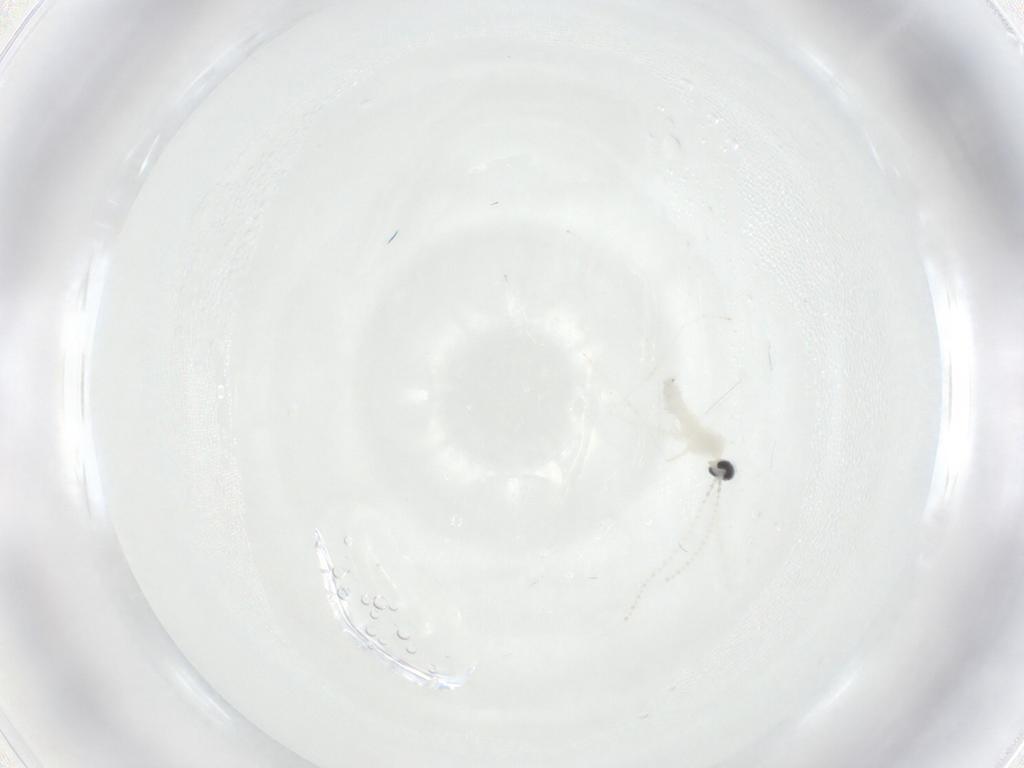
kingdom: Animalia
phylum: Arthropoda
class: Insecta
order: Diptera
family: Cecidomyiidae
